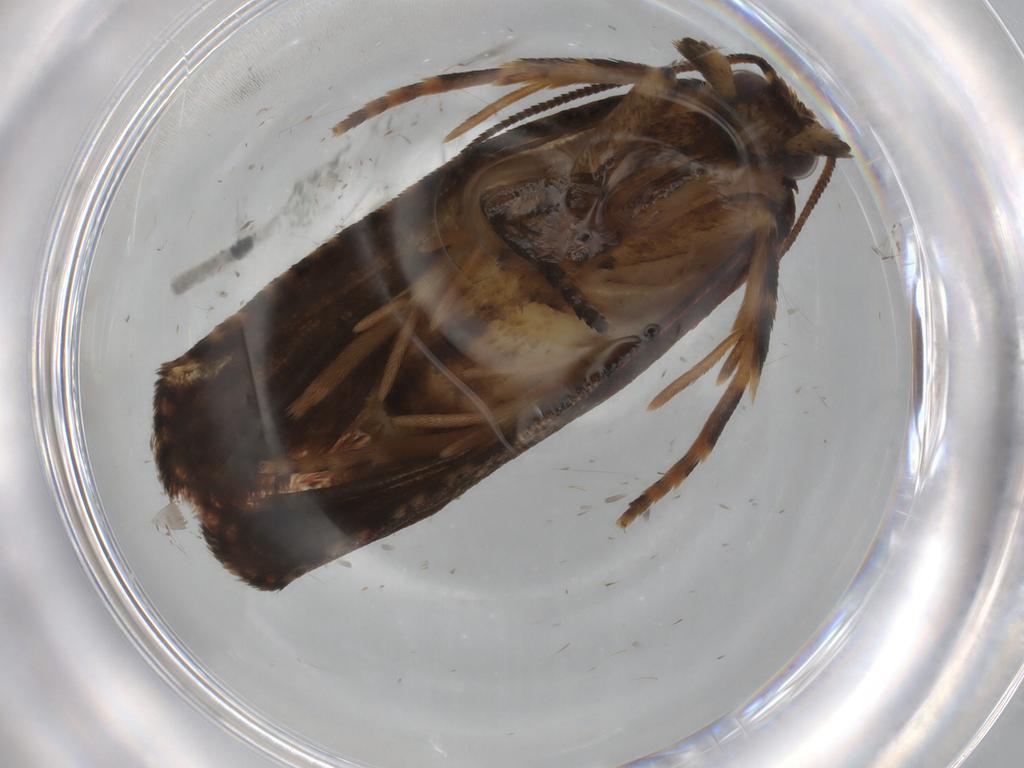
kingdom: Animalia
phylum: Arthropoda
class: Insecta
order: Lepidoptera
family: Tortricidae
